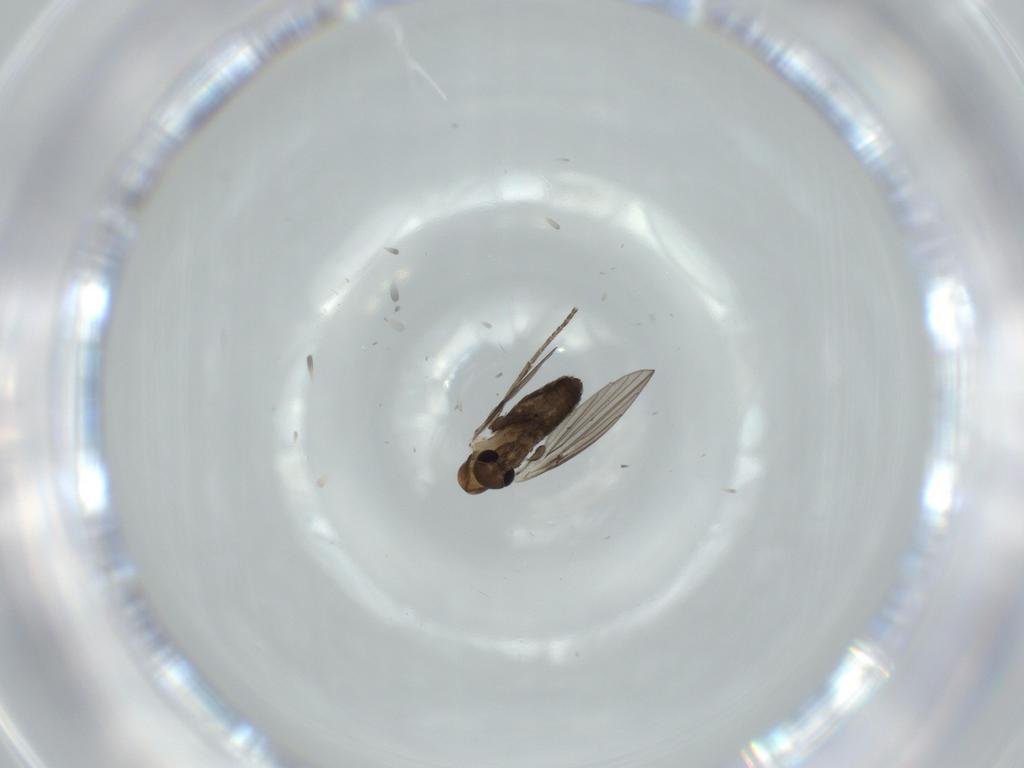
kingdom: Animalia
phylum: Arthropoda
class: Insecta
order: Diptera
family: Psychodidae
